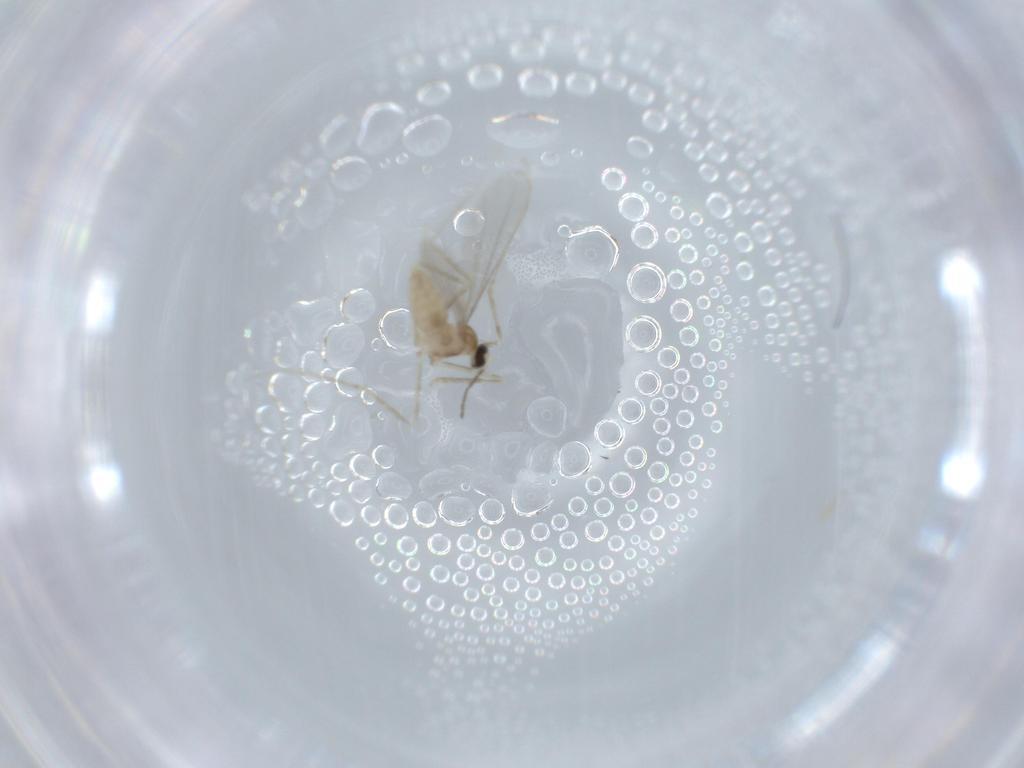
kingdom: Animalia
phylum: Arthropoda
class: Insecta
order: Diptera
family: Cecidomyiidae
